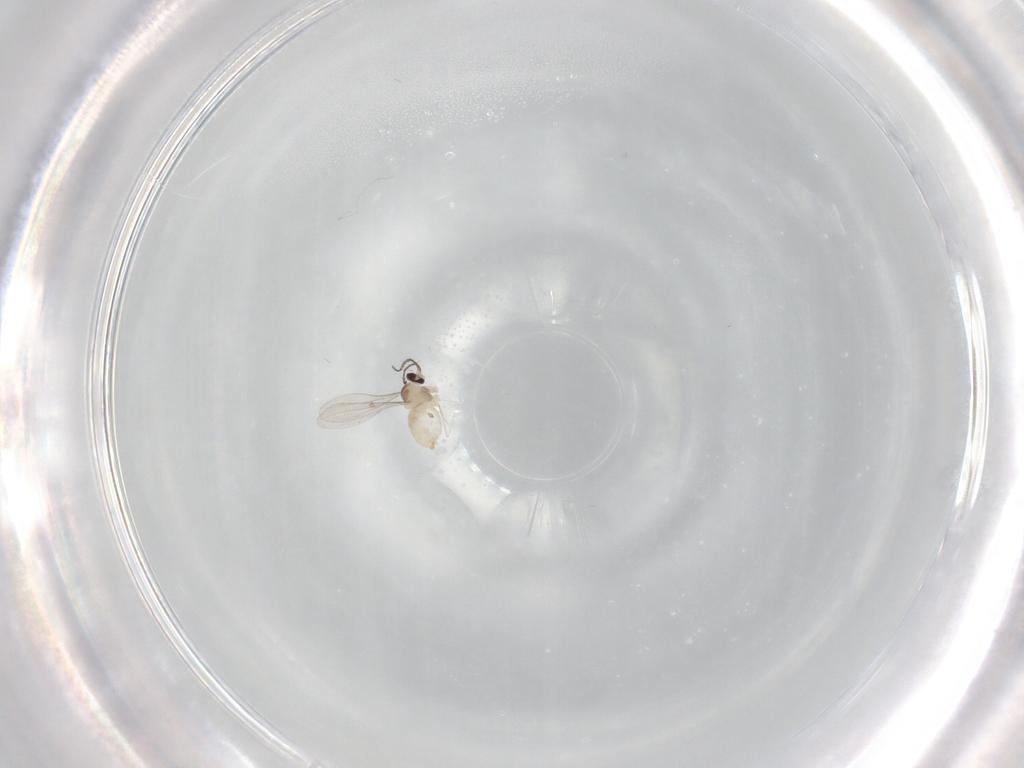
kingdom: Animalia
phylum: Arthropoda
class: Insecta
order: Diptera
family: Cecidomyiidae
